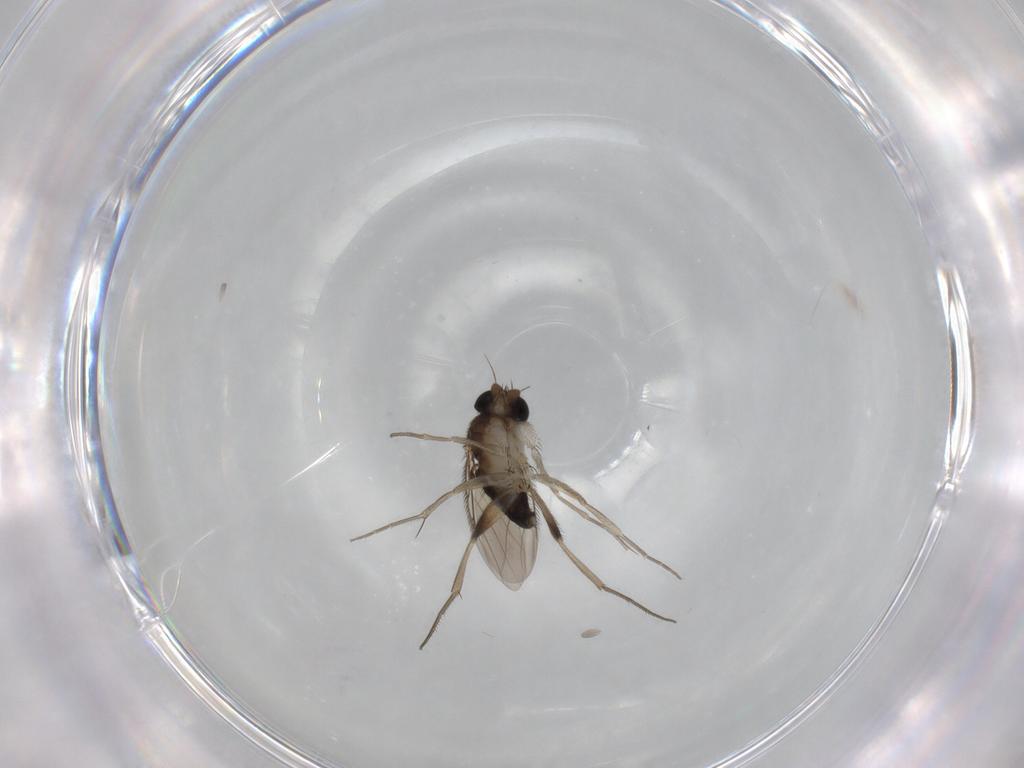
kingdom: Animalia
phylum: Arthropoda
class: Insecta
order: Diptera
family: Phoridae
